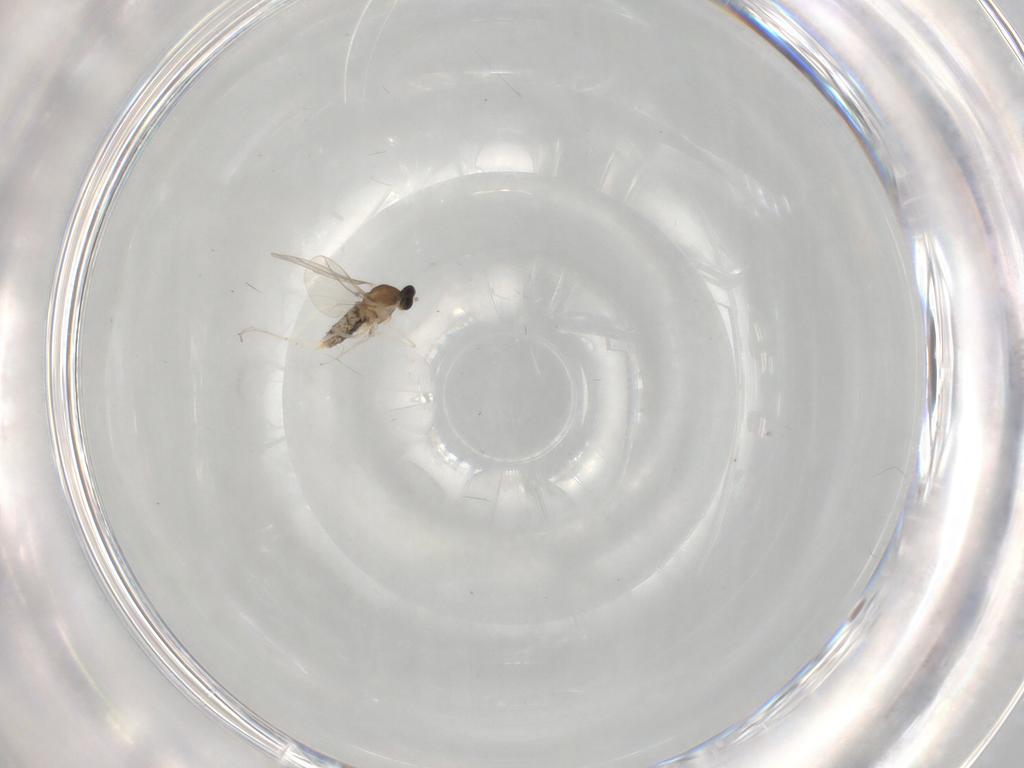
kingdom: Animalia
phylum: Arthropoda
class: Insecta
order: Diptera
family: Cecidomyiidae
